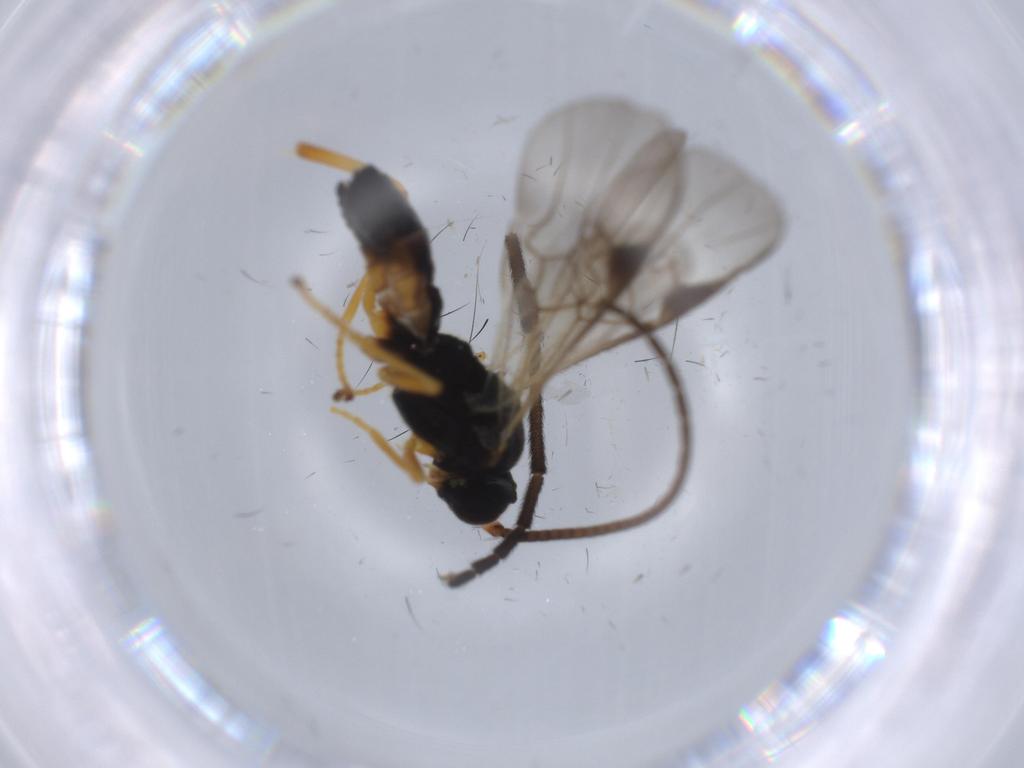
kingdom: Animalia
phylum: Arthropoda
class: Insecta
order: Hymenoptera
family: Braconidae
